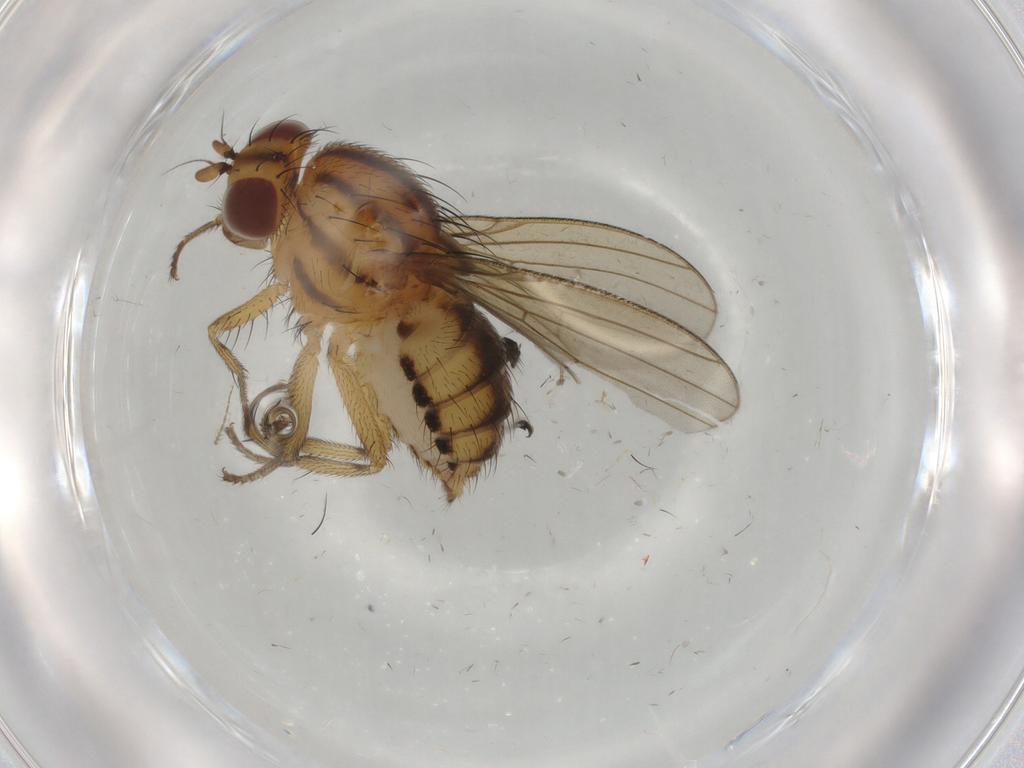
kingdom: Animalia
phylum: Arthropoda
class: Insecta
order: Diptera
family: Ceratopogonidae
